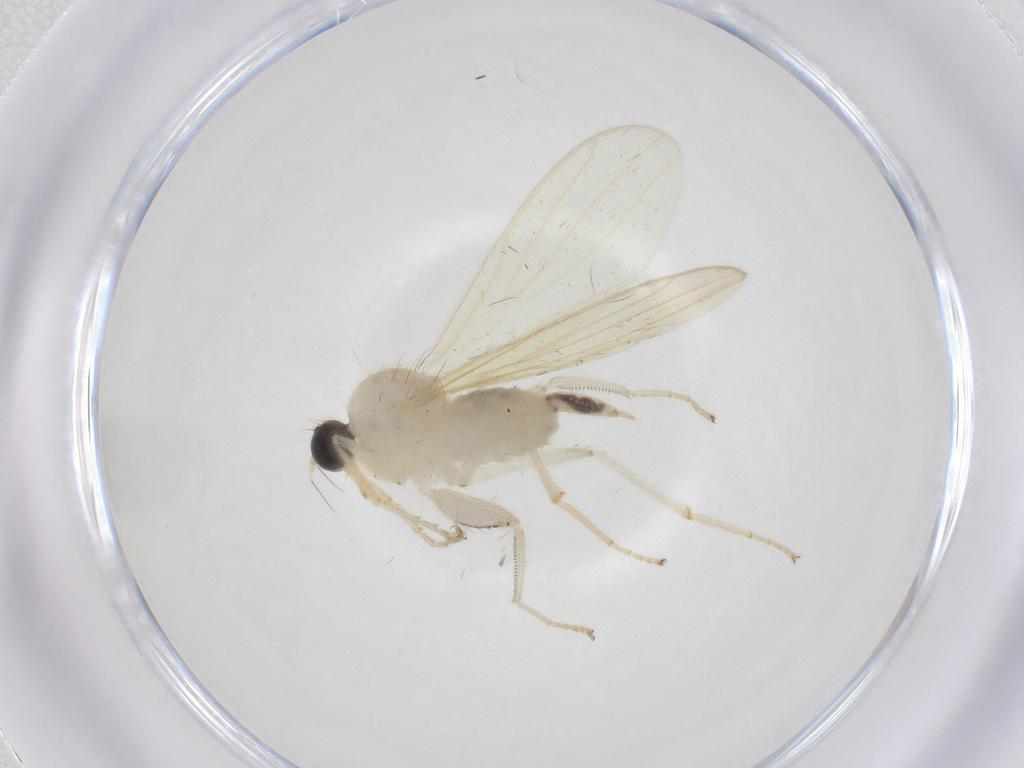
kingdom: Animalia
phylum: Arthropoda
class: Insecta
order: Diptera
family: Hybotidae
